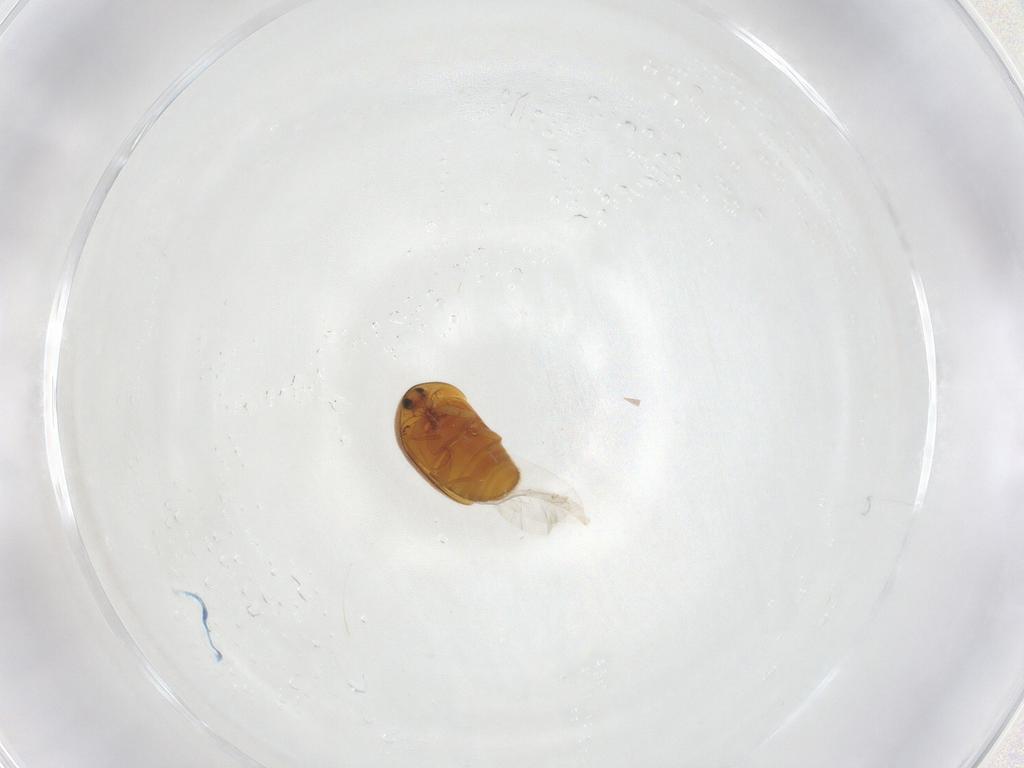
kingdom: Animalia
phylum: Arthropoda
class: Insecta
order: Coleoptera
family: Corylophidae
